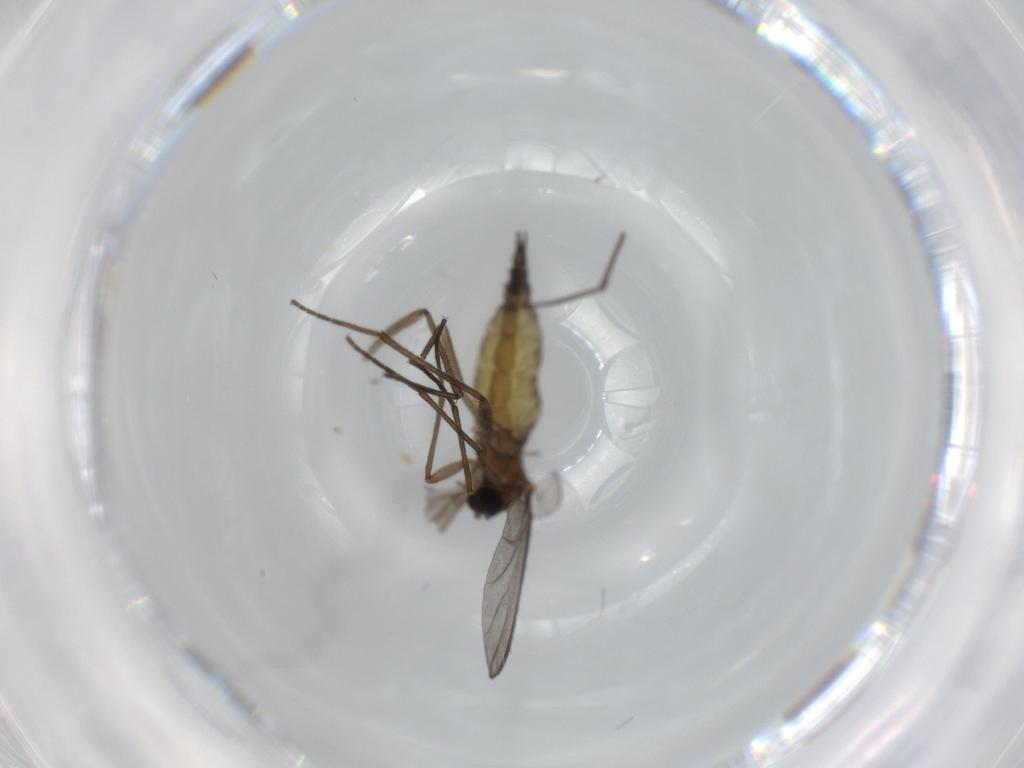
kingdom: Animalia
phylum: Arthropoda
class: Insecta
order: Diptera
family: Sciaridae
